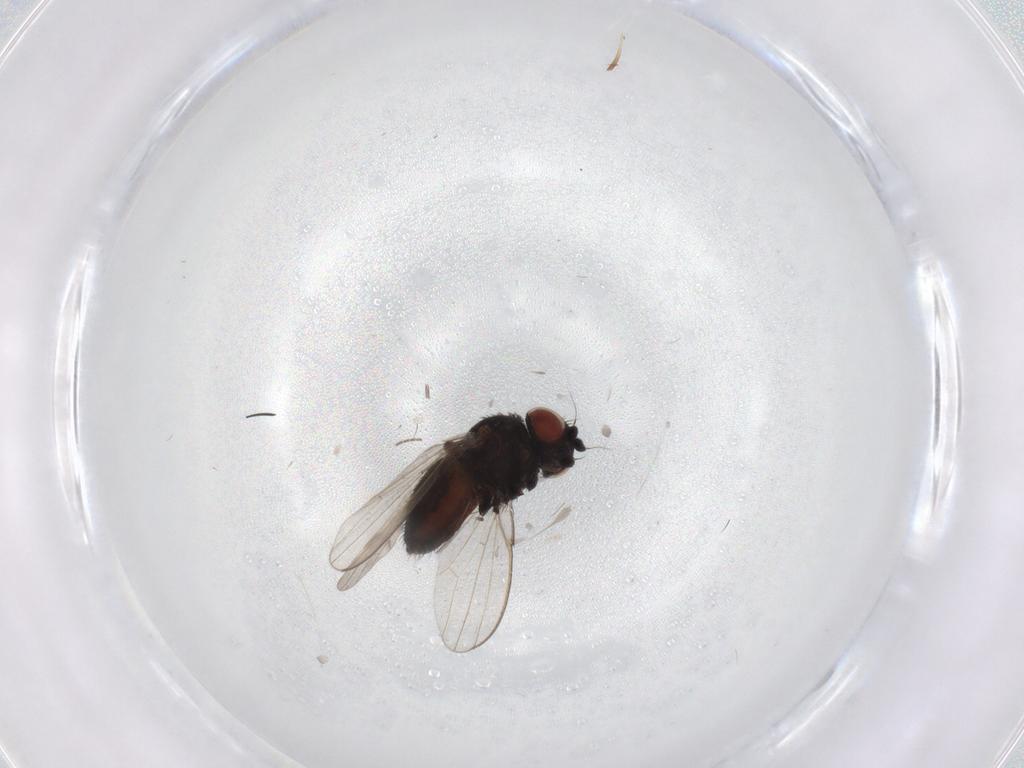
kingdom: Animalia
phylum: Arthropoda
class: Insecta
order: Diptera
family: Milichiidae
